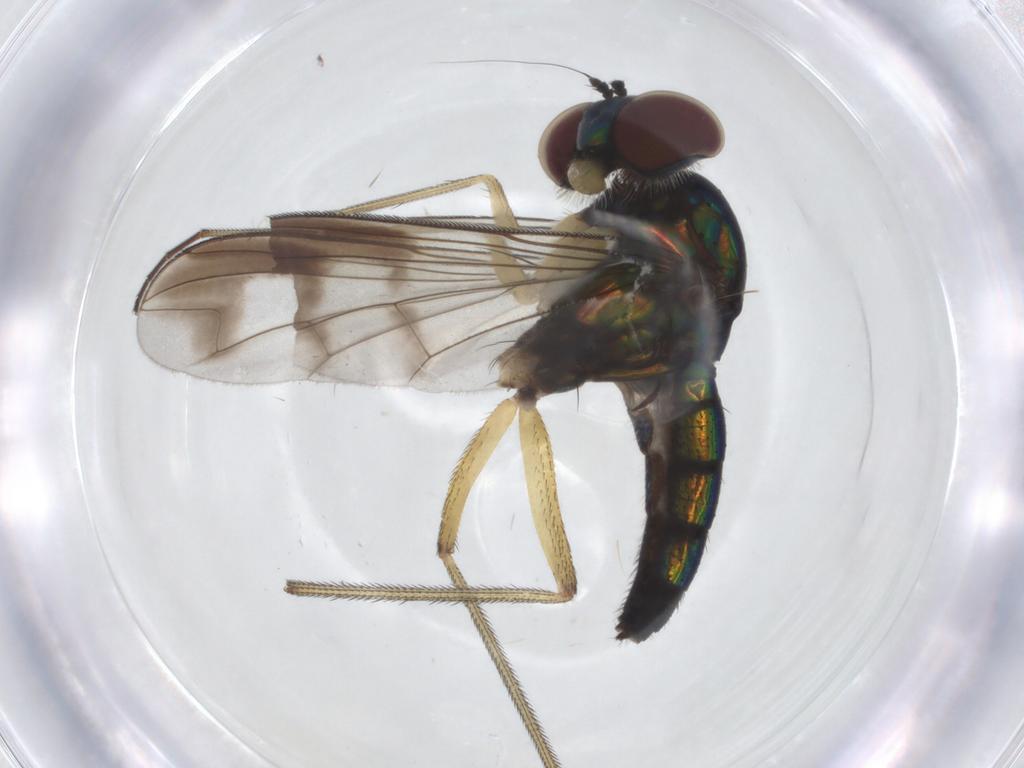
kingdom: Animalia
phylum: Arthropoda
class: Insecta
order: Diptera
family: Dolichopodidae
